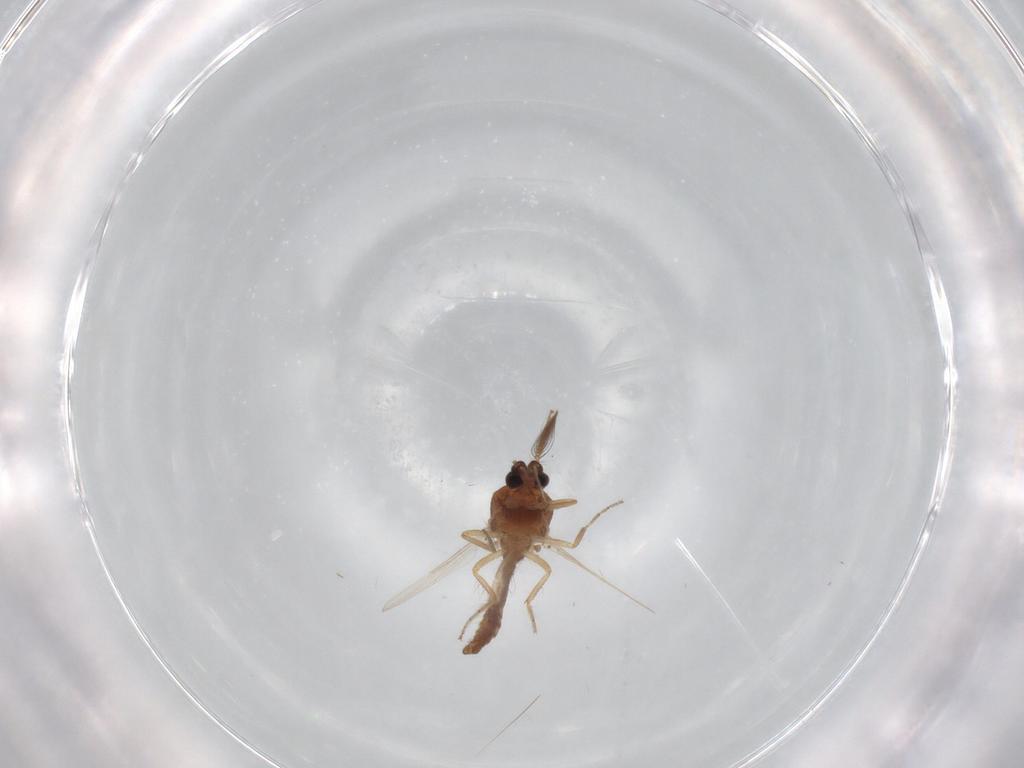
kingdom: Animalia
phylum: Arthropoda
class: Insecta
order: Diptera
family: Ceratopogonidae
